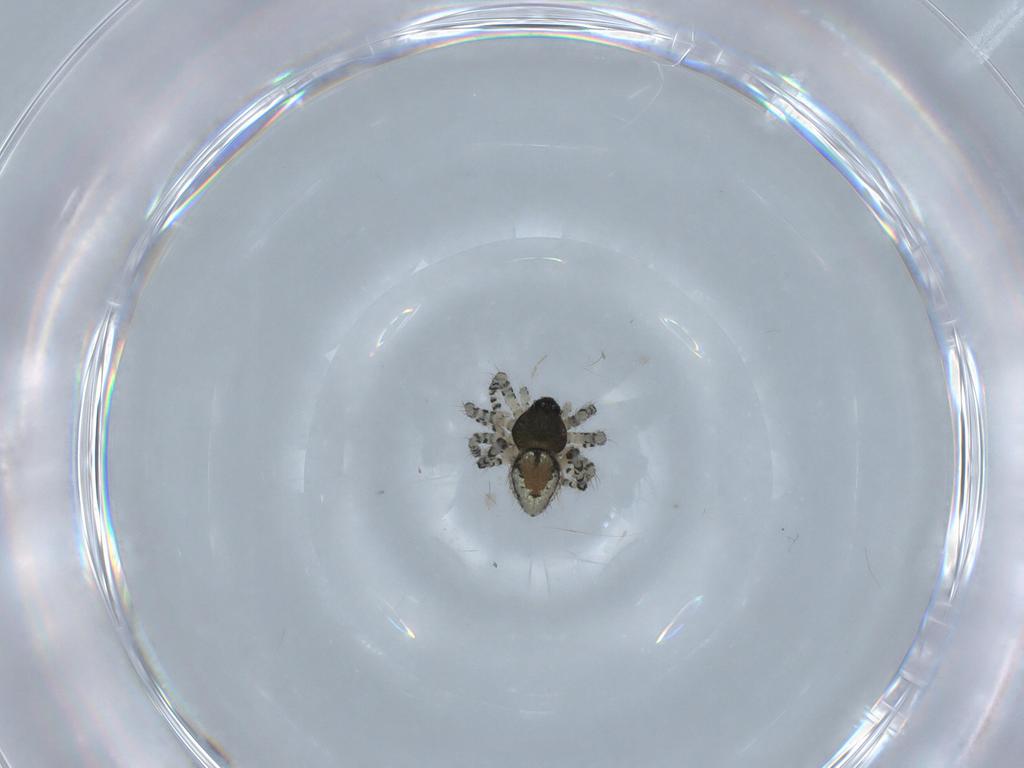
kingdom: Animalia
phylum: Arthropoda
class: Arachnida
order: Araneae
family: Theridiidae
